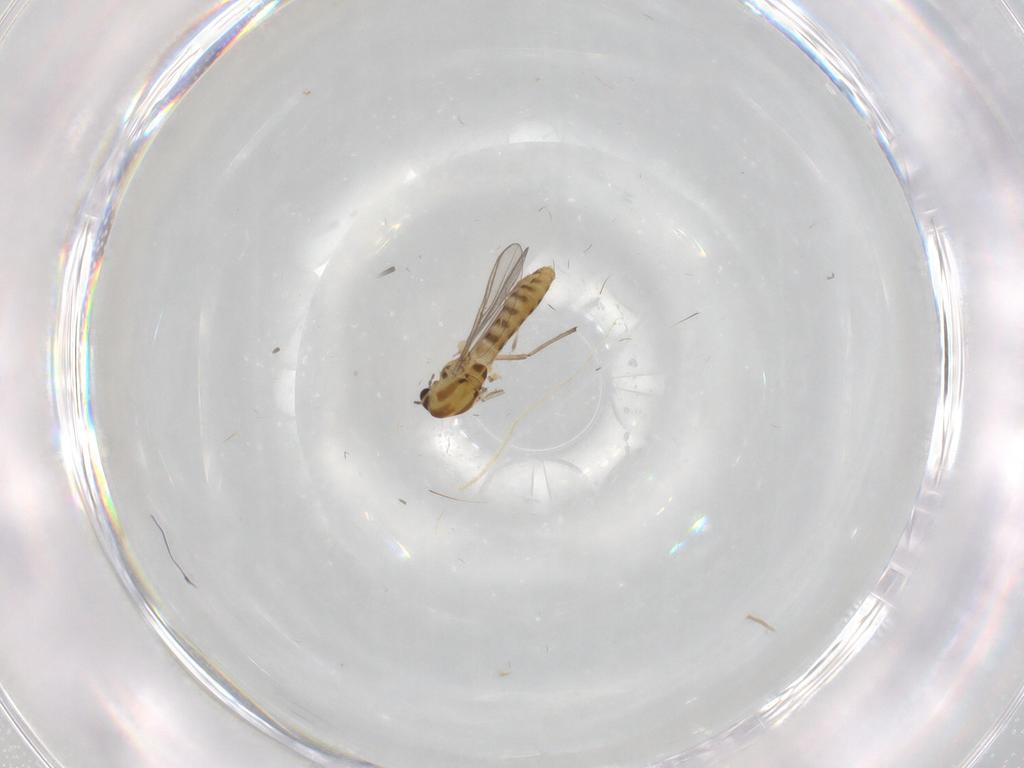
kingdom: Animalia
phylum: Arthropoda
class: Insecta
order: Diptera
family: Chironomidae
